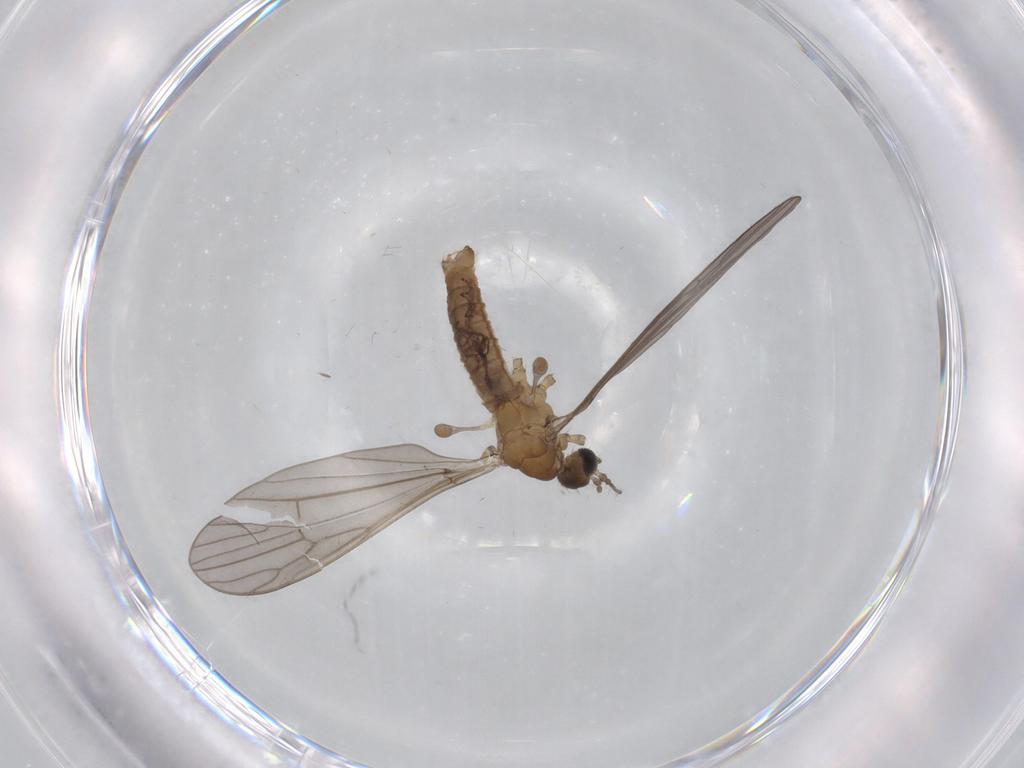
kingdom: Animalia
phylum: Arthropoda
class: Insecta
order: Diptera
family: Sciaridae
